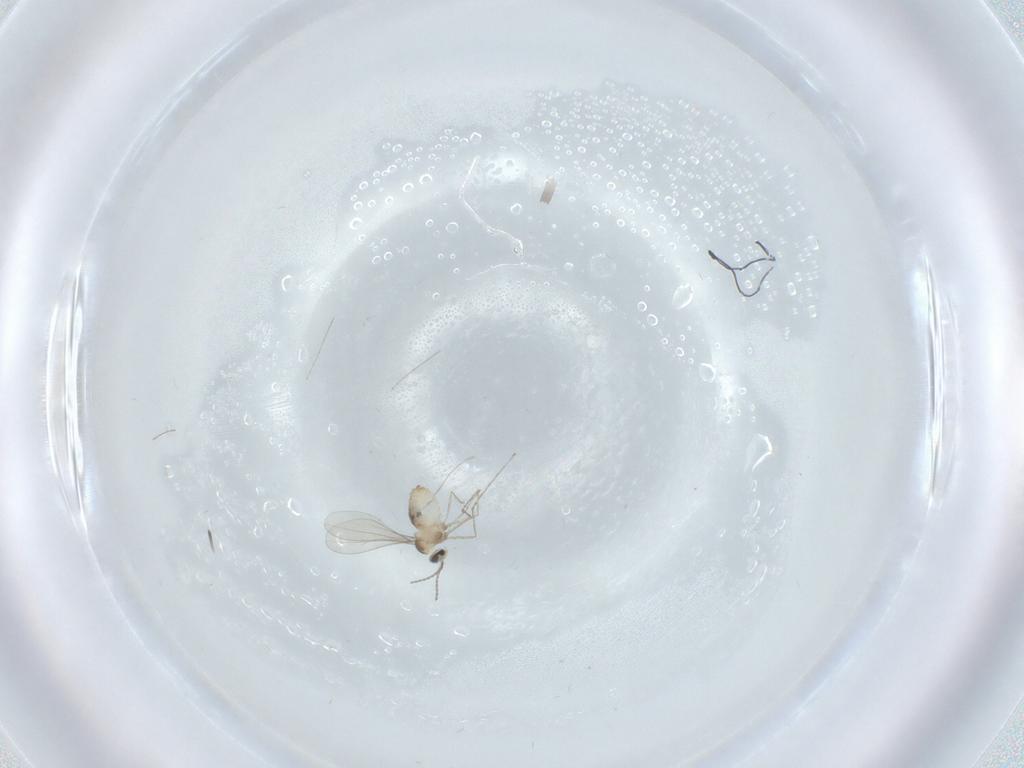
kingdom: Animalia
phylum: Arthropoda
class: Insecta
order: Diptera
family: Cecidomyiidae
